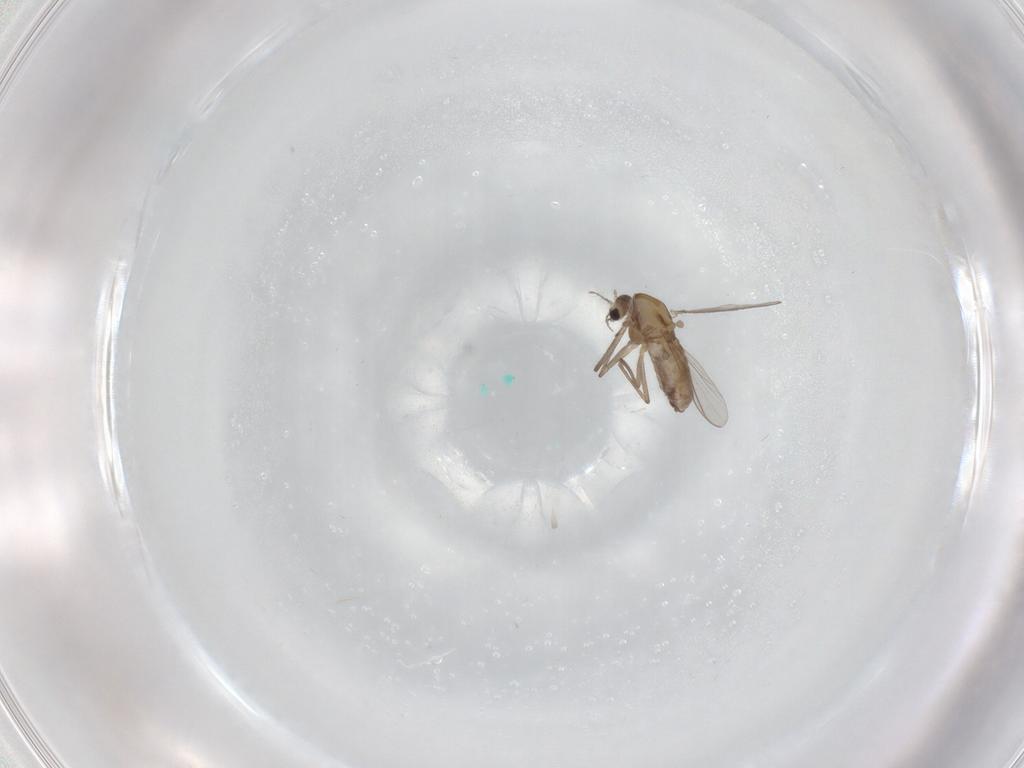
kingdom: Animalia
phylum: Arthropoda
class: Insecta
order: Diptera
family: Chironomidae
